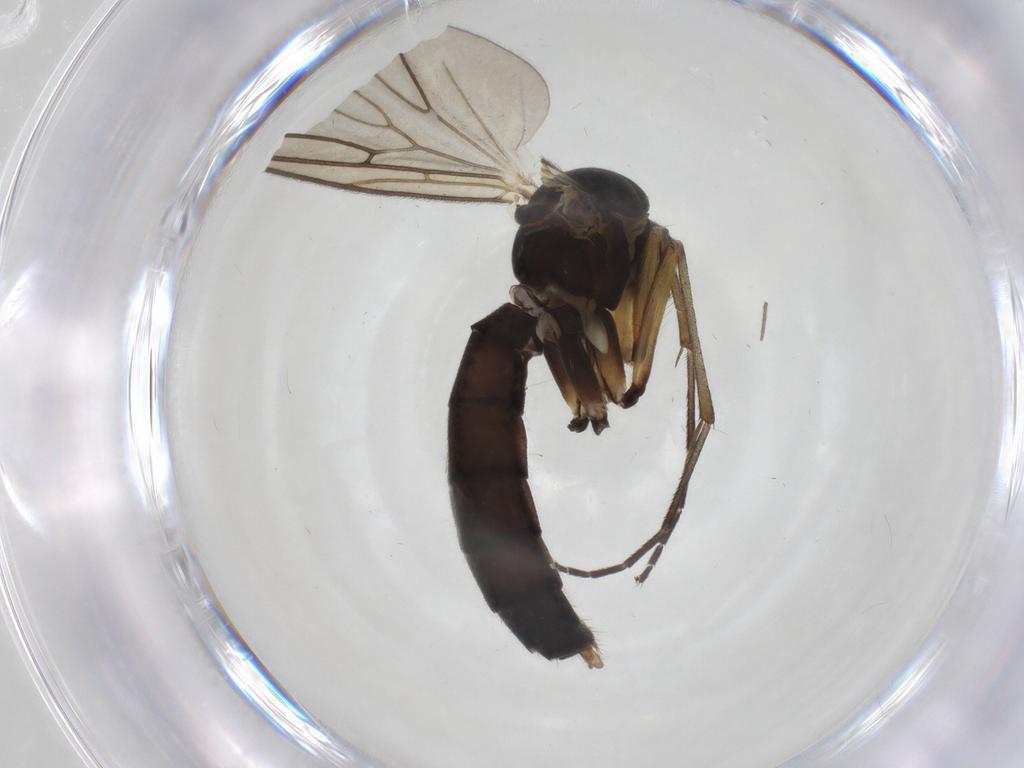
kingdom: Animalia
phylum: Arthropoda
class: Insecta
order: Diptera
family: Mycetophilidae
